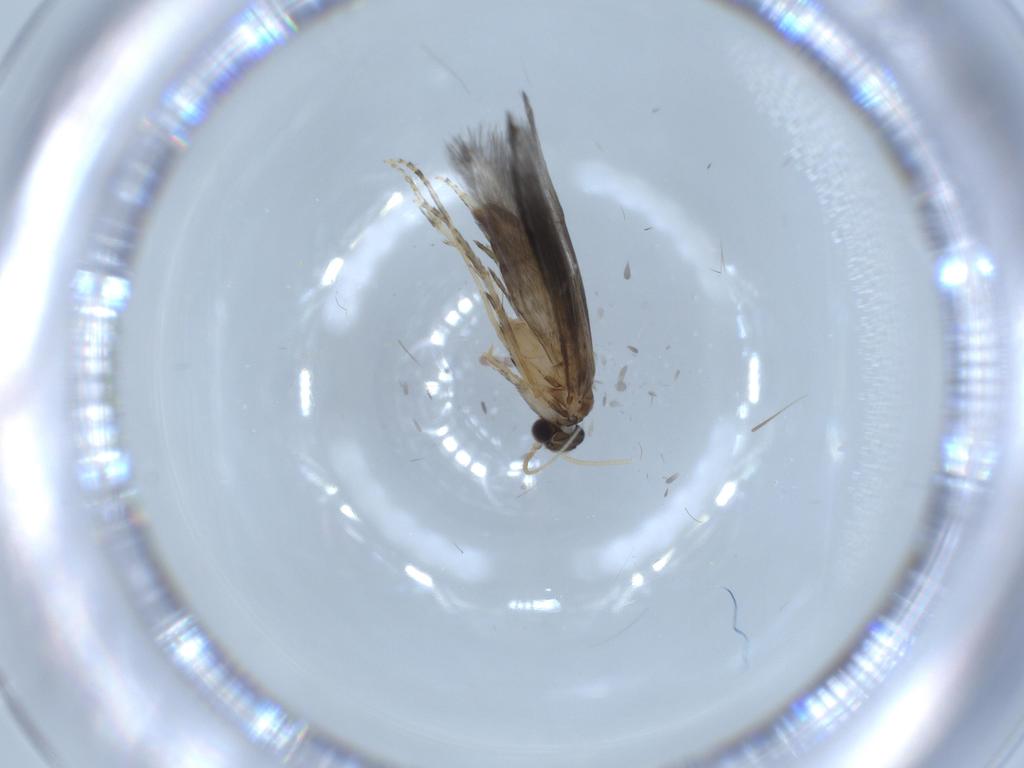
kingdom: Animalia
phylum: Arthropoda
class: Insecta
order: Trichoptera
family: Hydroptilidae
